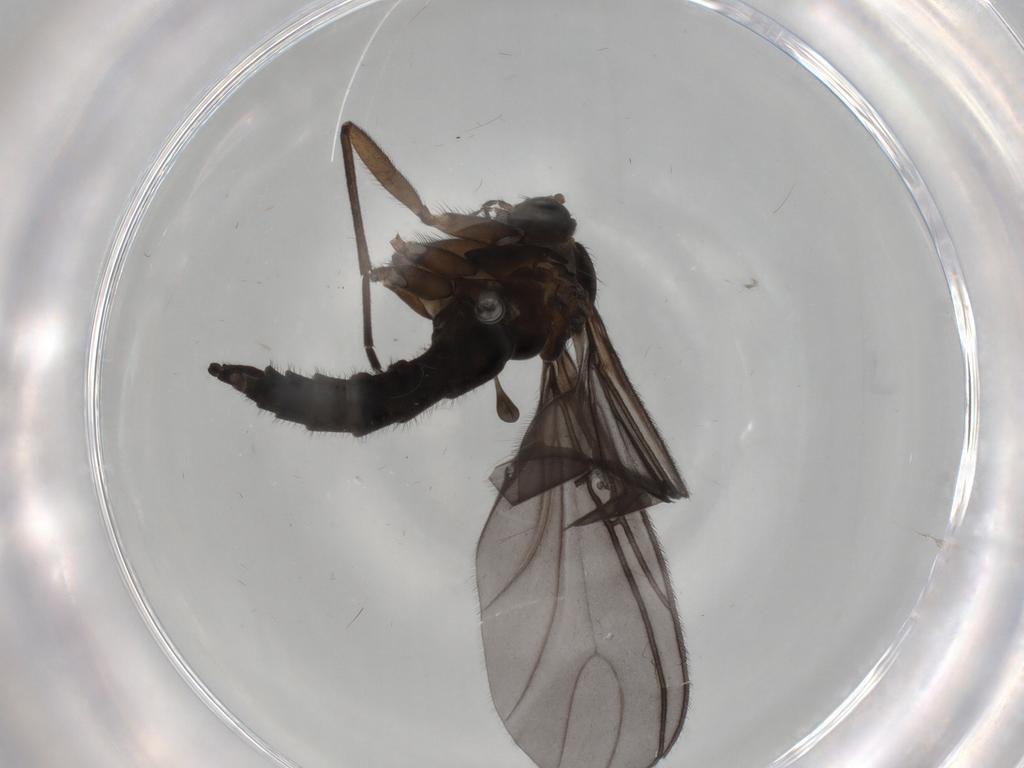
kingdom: Animalia
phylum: Arthropoda
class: Insecta
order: Diptera
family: Sciaridae
